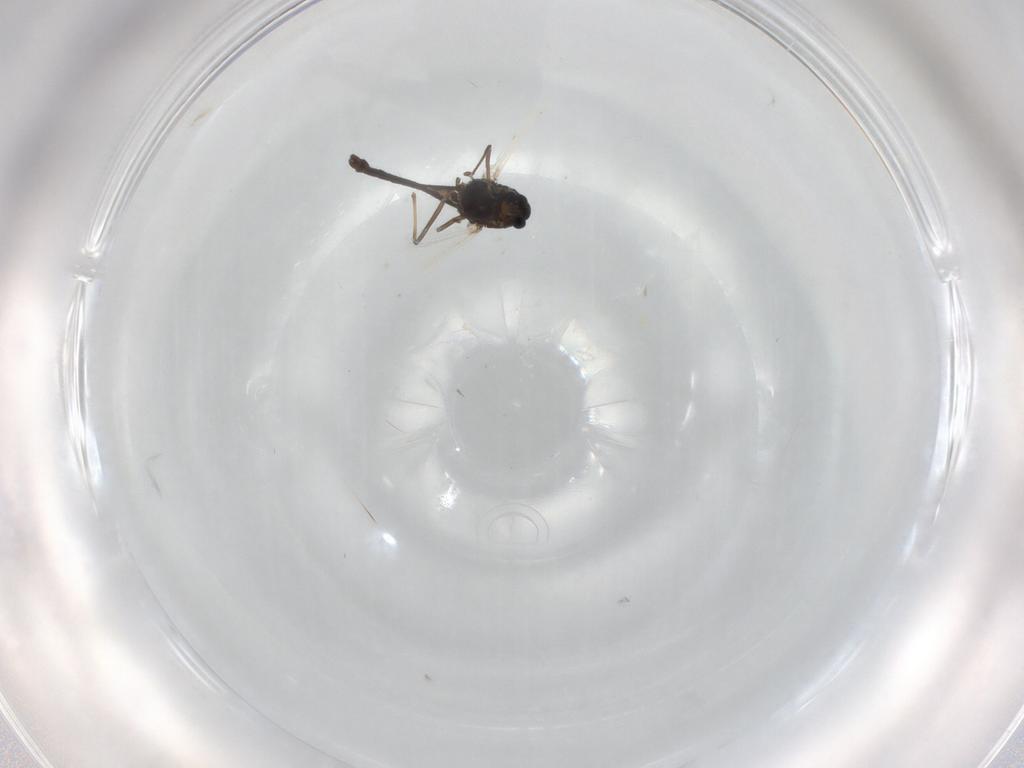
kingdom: Animalia
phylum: Arthropoda
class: Insecta
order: Diptera
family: Chironomidae
